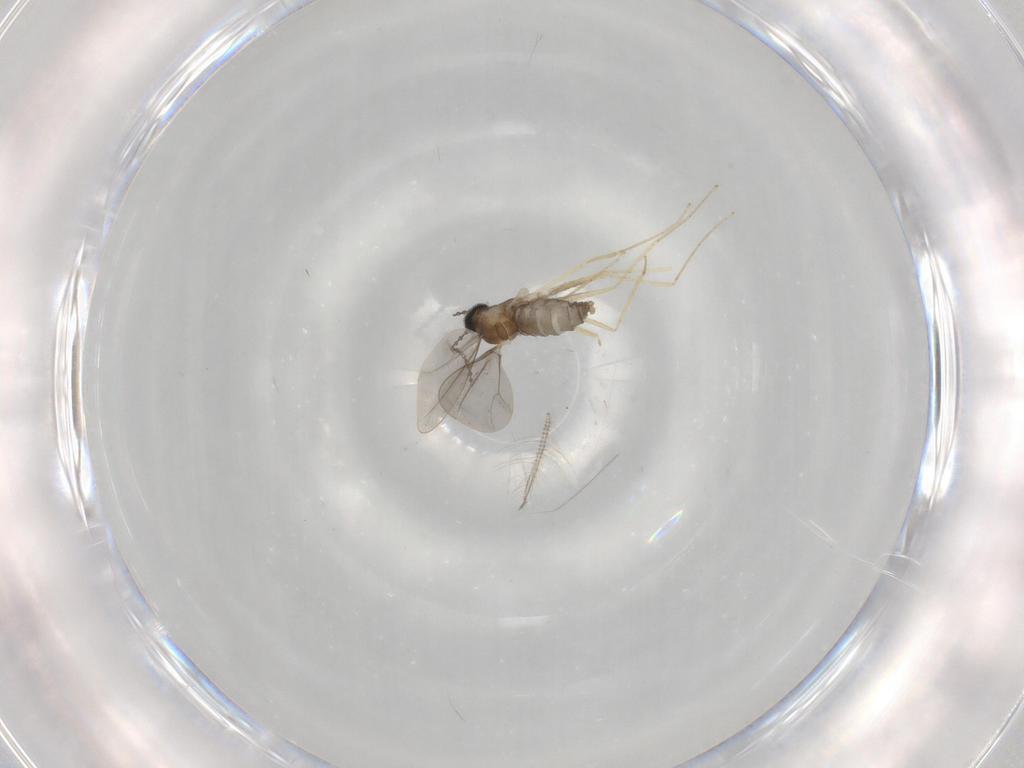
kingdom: Animalia
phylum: Arthropoda
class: Insecta
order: Diptera
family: Cecidomyiidae
